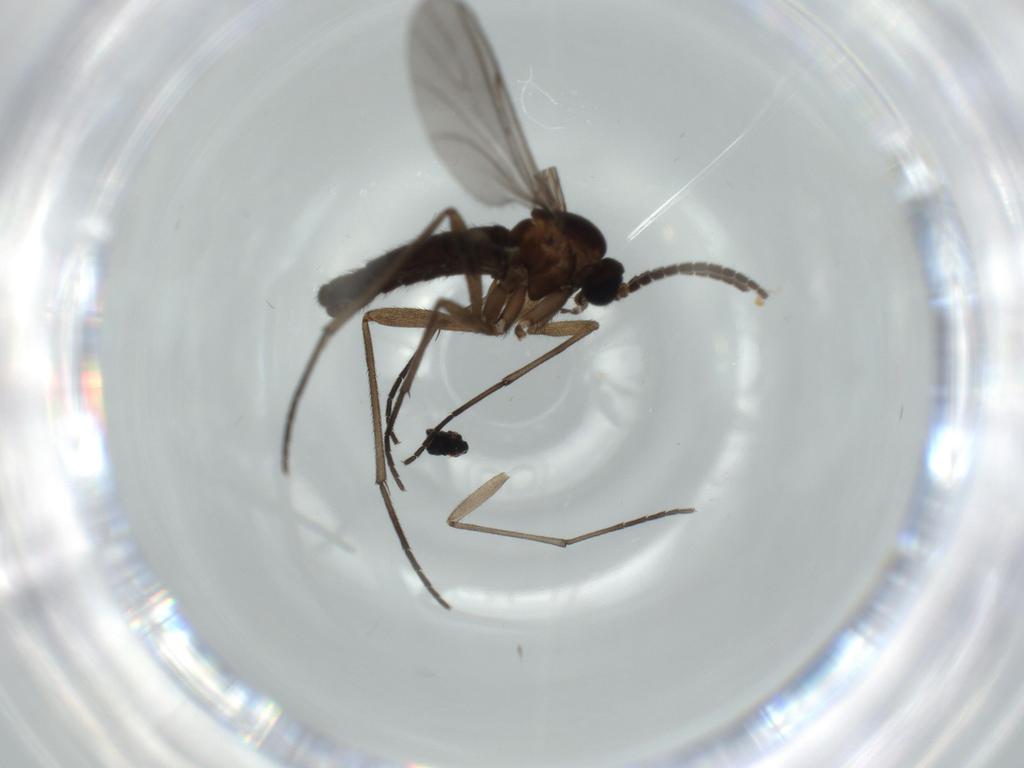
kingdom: Animalia
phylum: Arthropoda
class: Insecta
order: Diptera
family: Sciaridae
